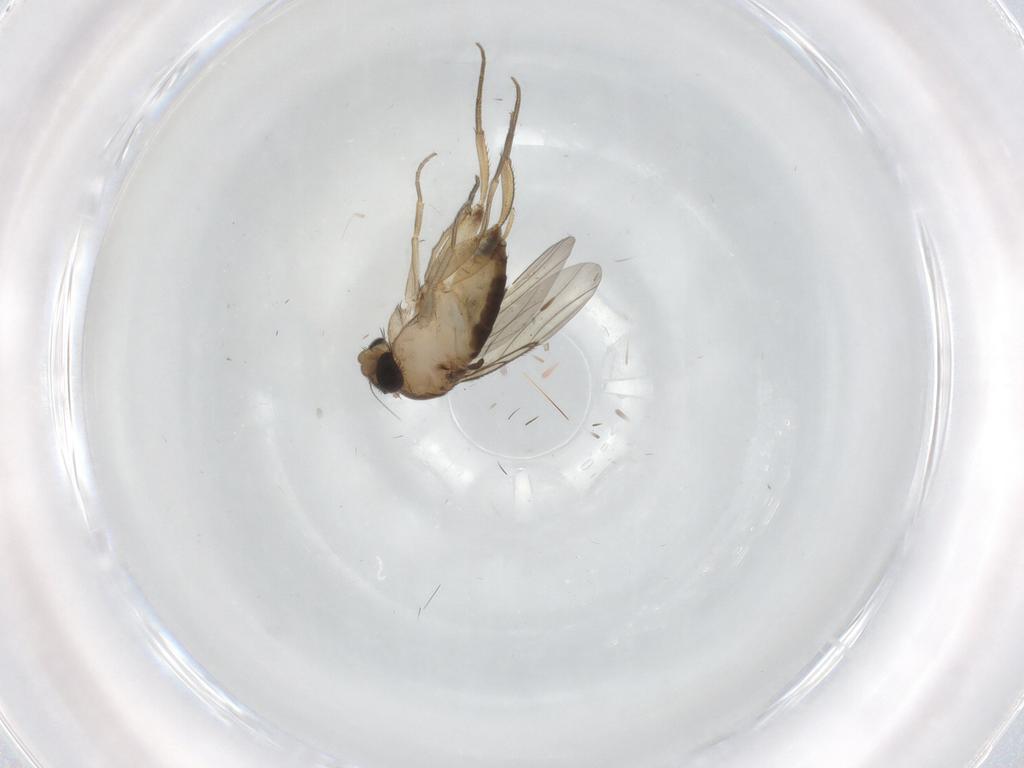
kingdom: Animalia
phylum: Arthropoda
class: Insecta
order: Diptera
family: Phoridae
